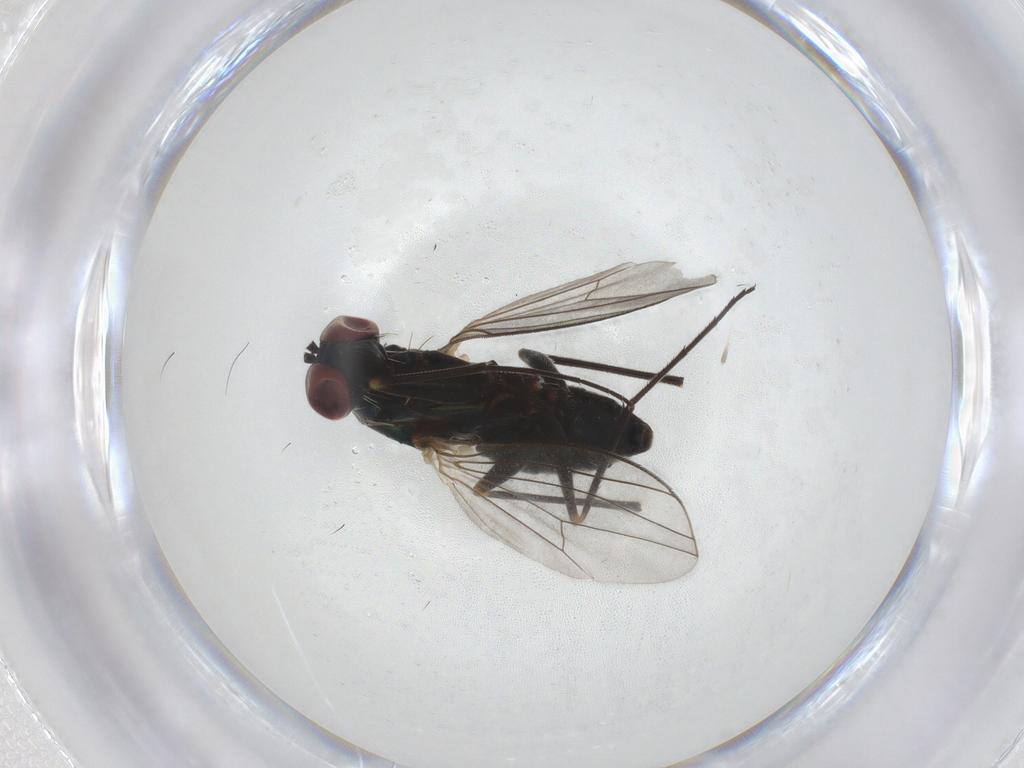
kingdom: Animalia
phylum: Arthropoda
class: Insecta
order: Diptera
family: Dolichopodidae
